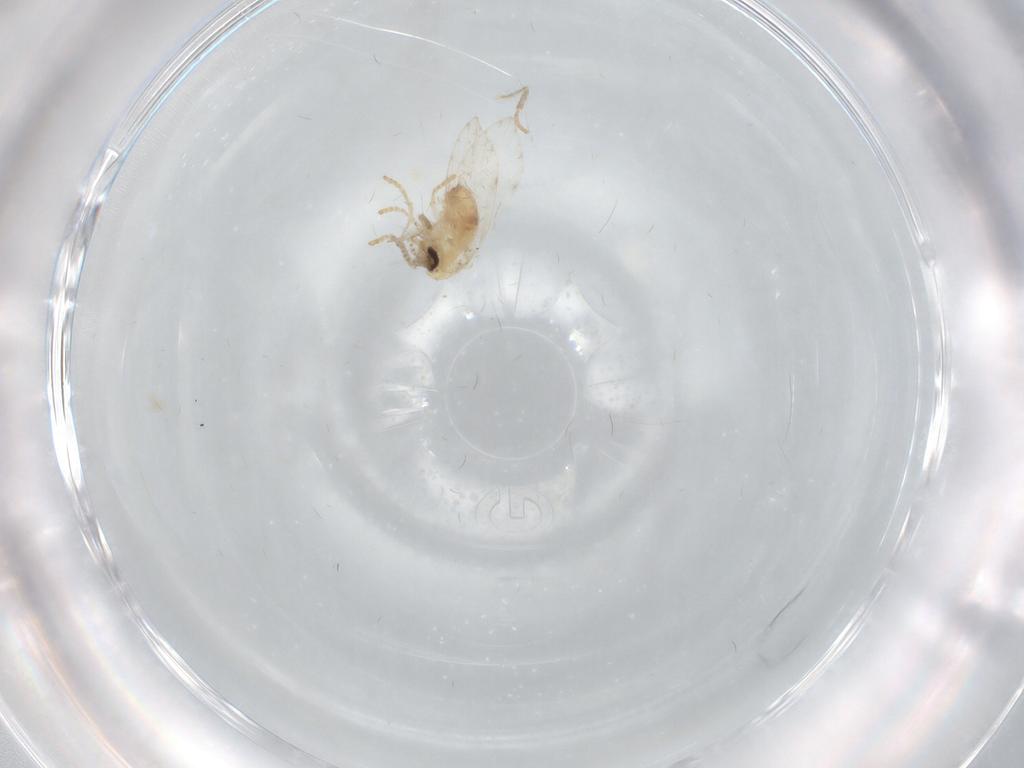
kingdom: Animalia
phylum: Arthropoda
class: Insecta
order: Diptera
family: Psychodidae
